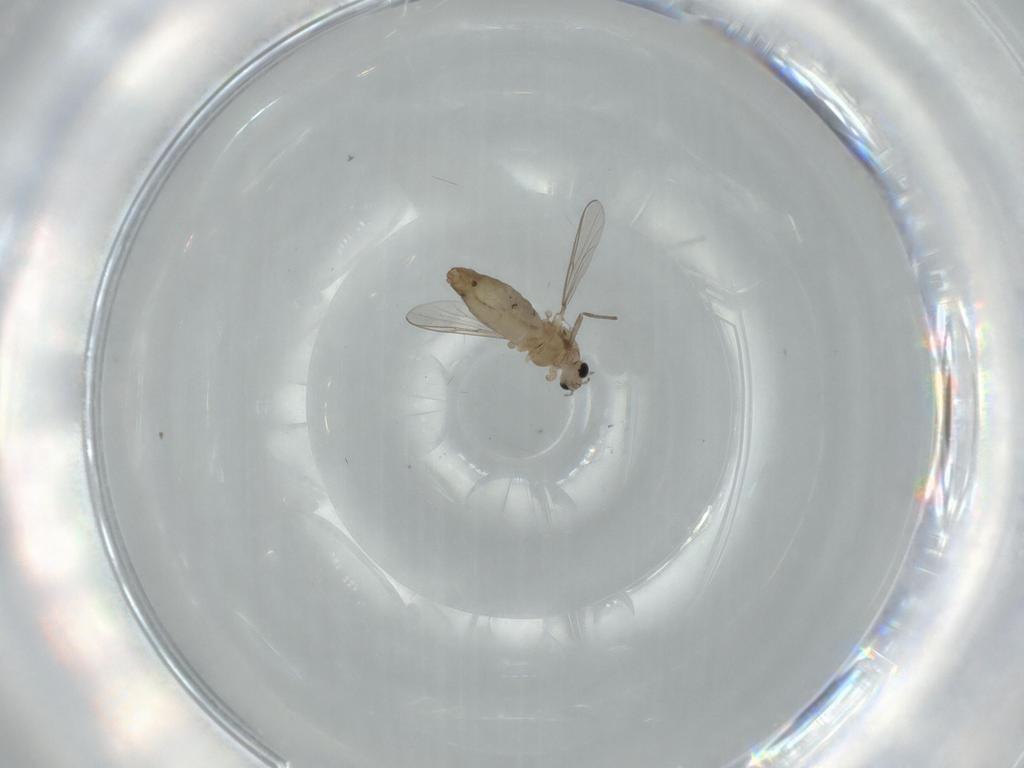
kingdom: Animalia
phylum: Arthropoda
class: Insecta
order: Diptera
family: Chironomidae
